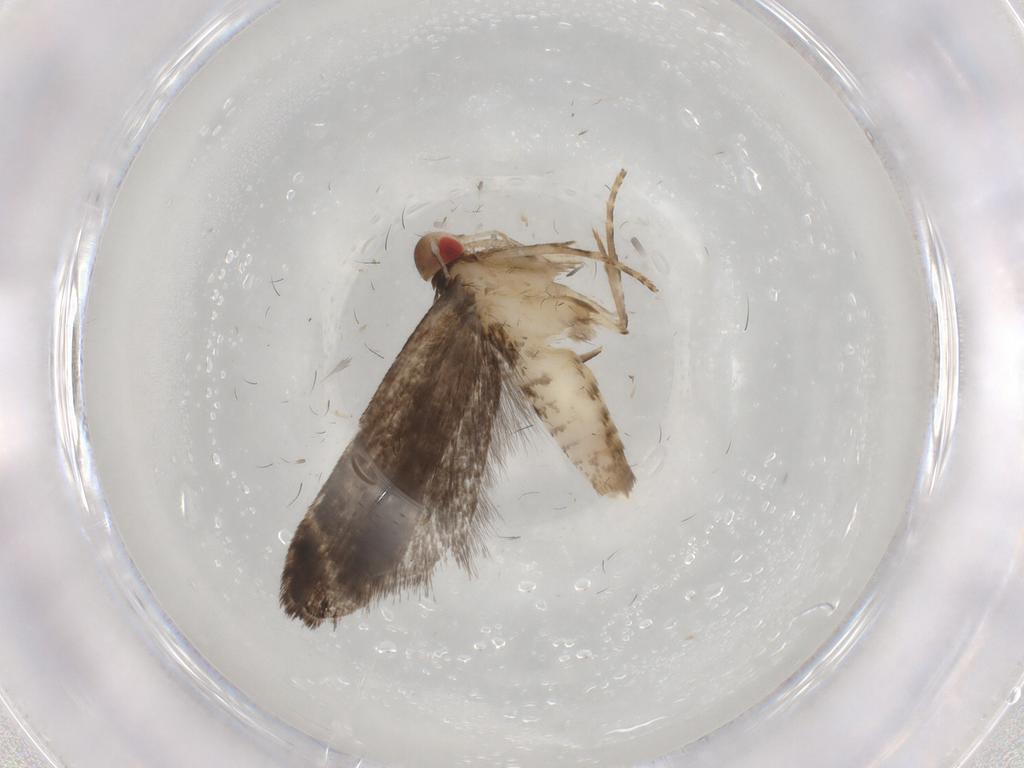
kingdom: Animalia
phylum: Arthropoda
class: Insecta
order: Lepidoptera
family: Gelechiidae
